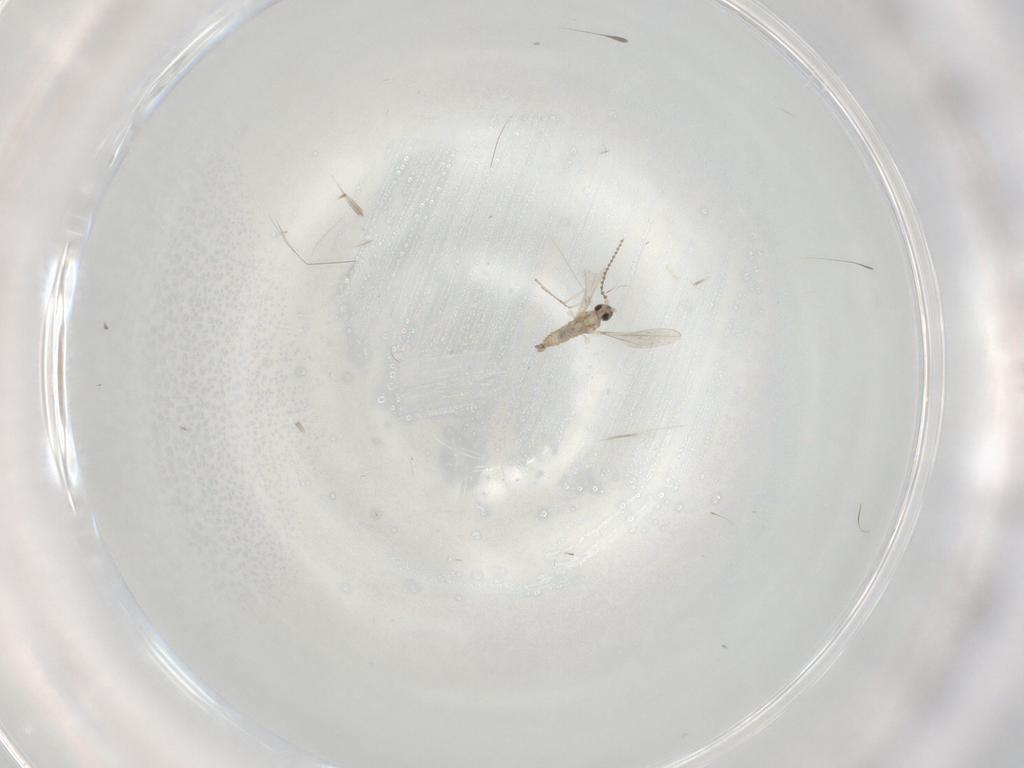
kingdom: Animalia
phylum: Arthropoda
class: Insecta
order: Diptera
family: Cecidomyiidae
